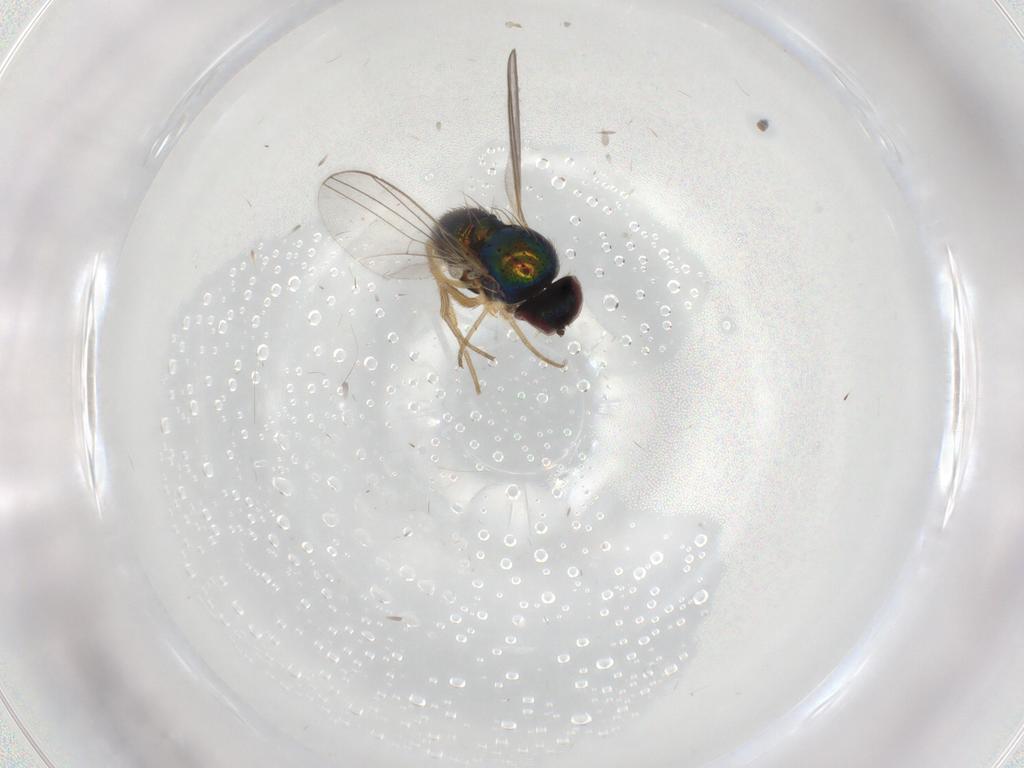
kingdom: Animalia
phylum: Arthropoda
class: Insecta
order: Diptera
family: Dolichopodidae
